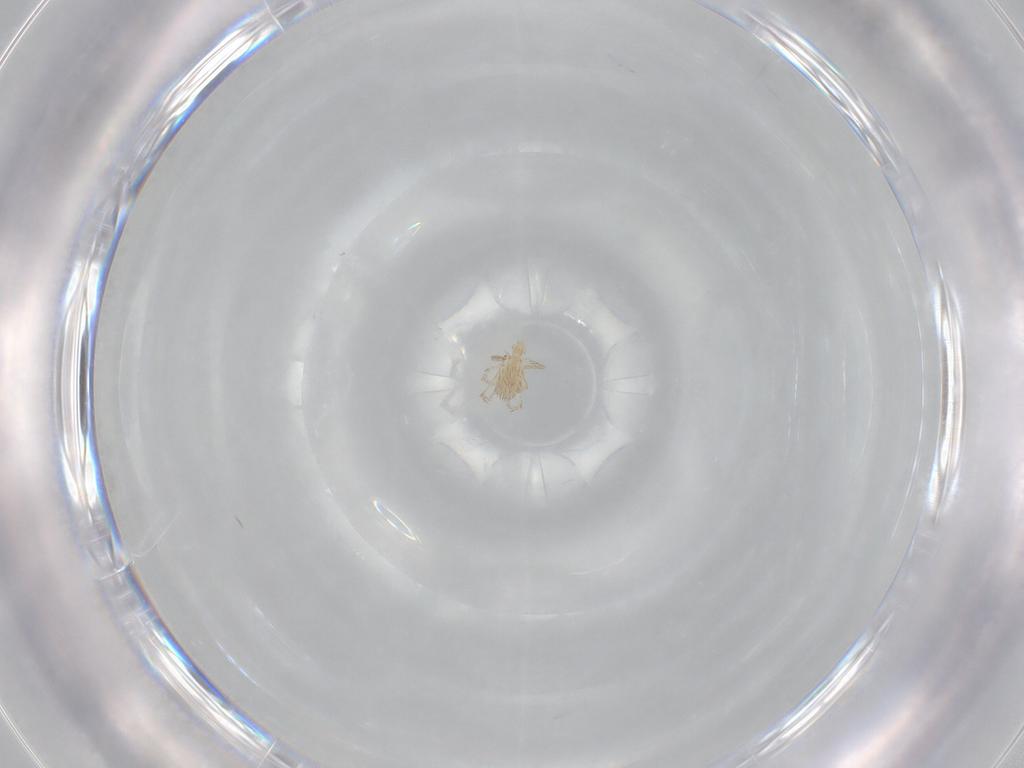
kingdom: Animalia
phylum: Arthropoda
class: Arachnida
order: Trombidiformes
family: Erythraeidae
